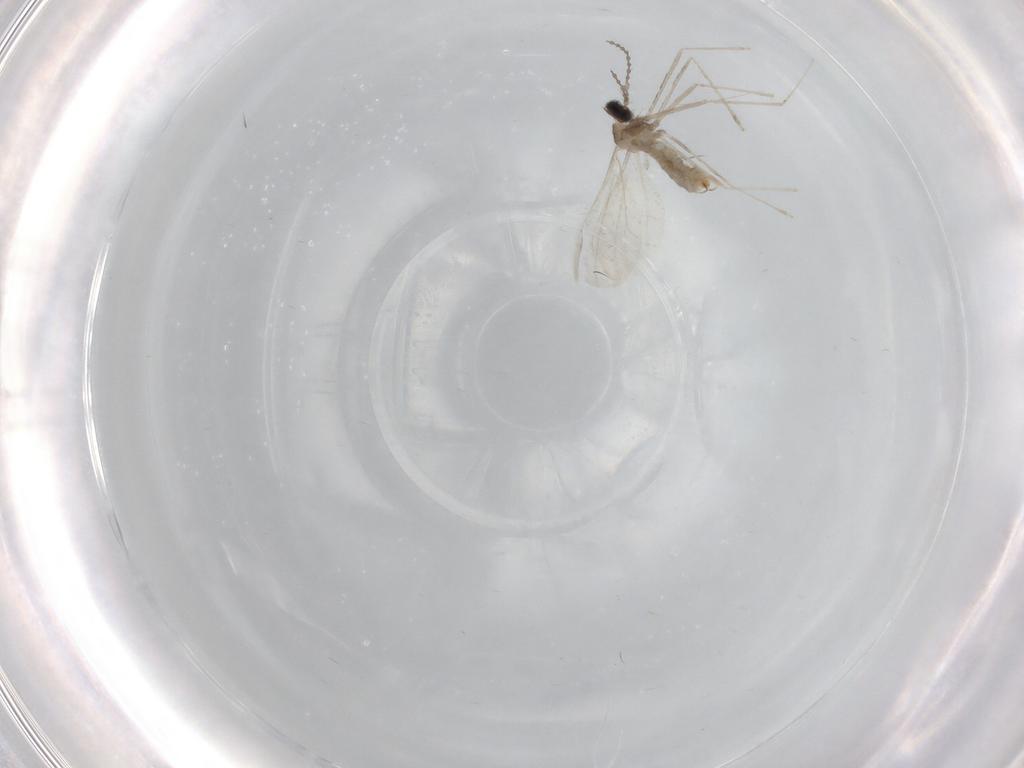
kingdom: Animalia
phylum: Arthropoda
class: Insecta
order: Diptera
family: Cecidomyiidae
